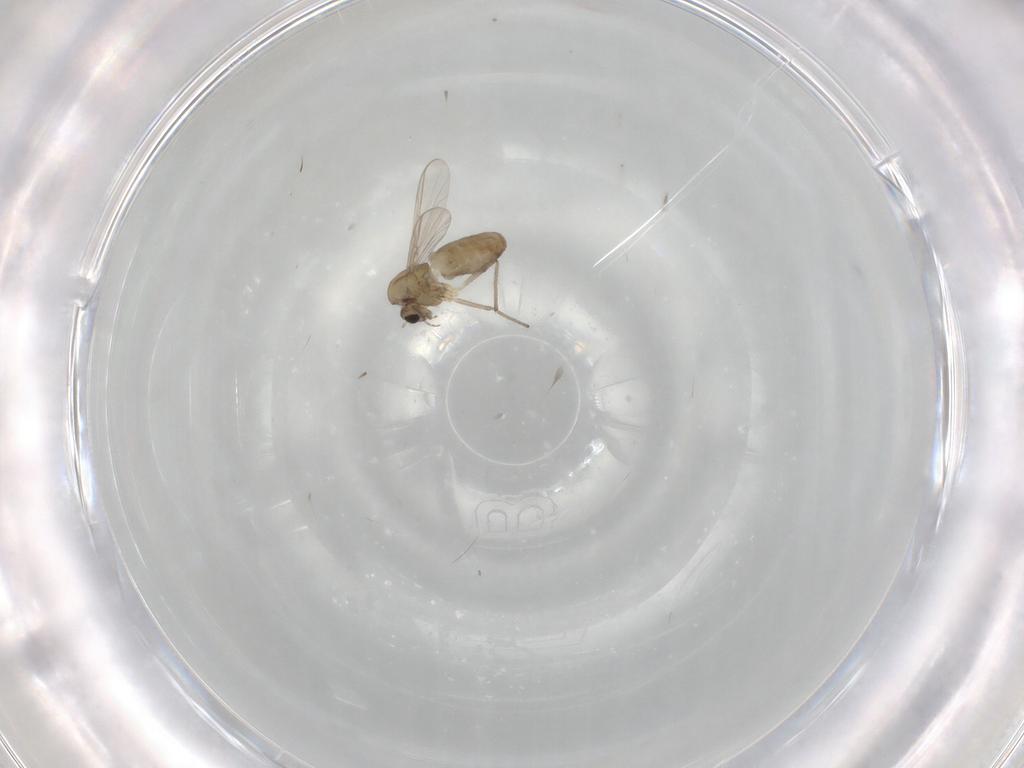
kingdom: Animalia
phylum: Arthropoda
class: Insecta
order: Diptera
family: Chironomidae
